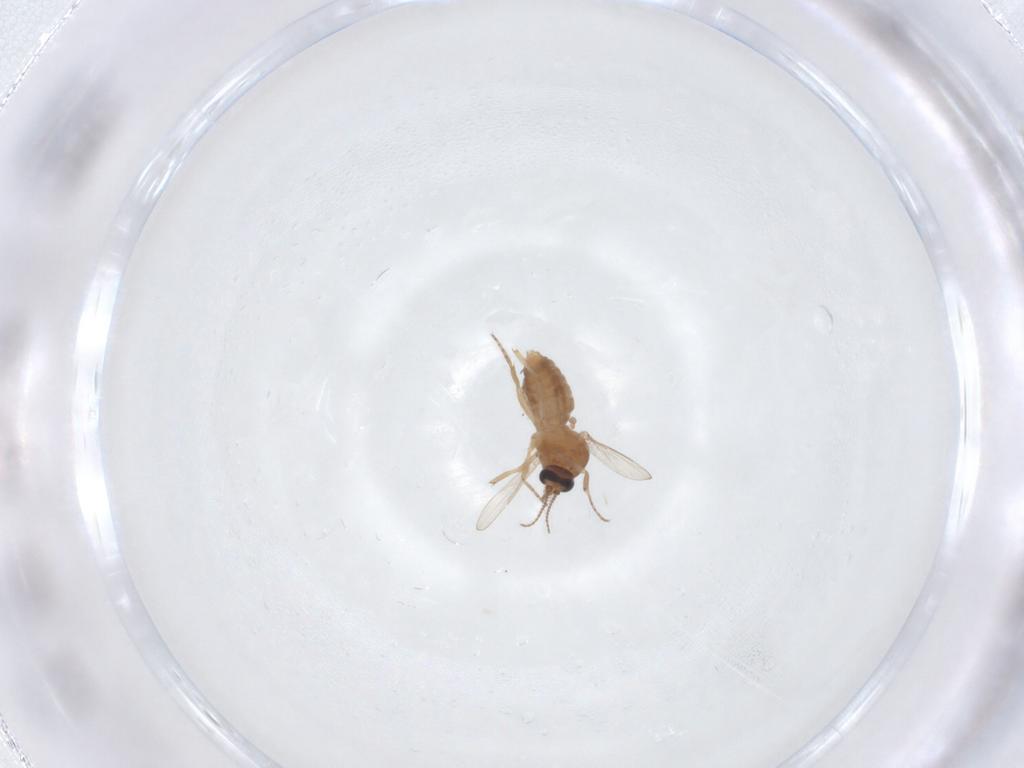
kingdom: Animalia
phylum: Arthropoda
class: Insecta
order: Diptera
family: Ceratopogonidae
